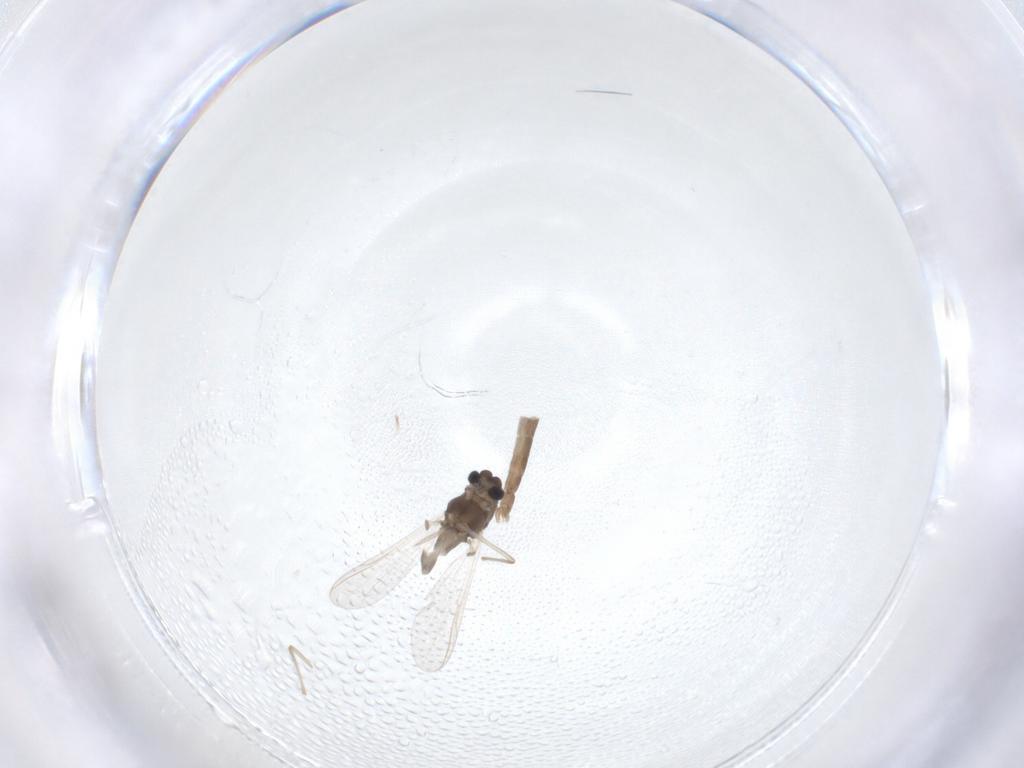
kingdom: Animalia
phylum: Arthropoda
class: Insecta
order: Diptera
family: Chironomidae
